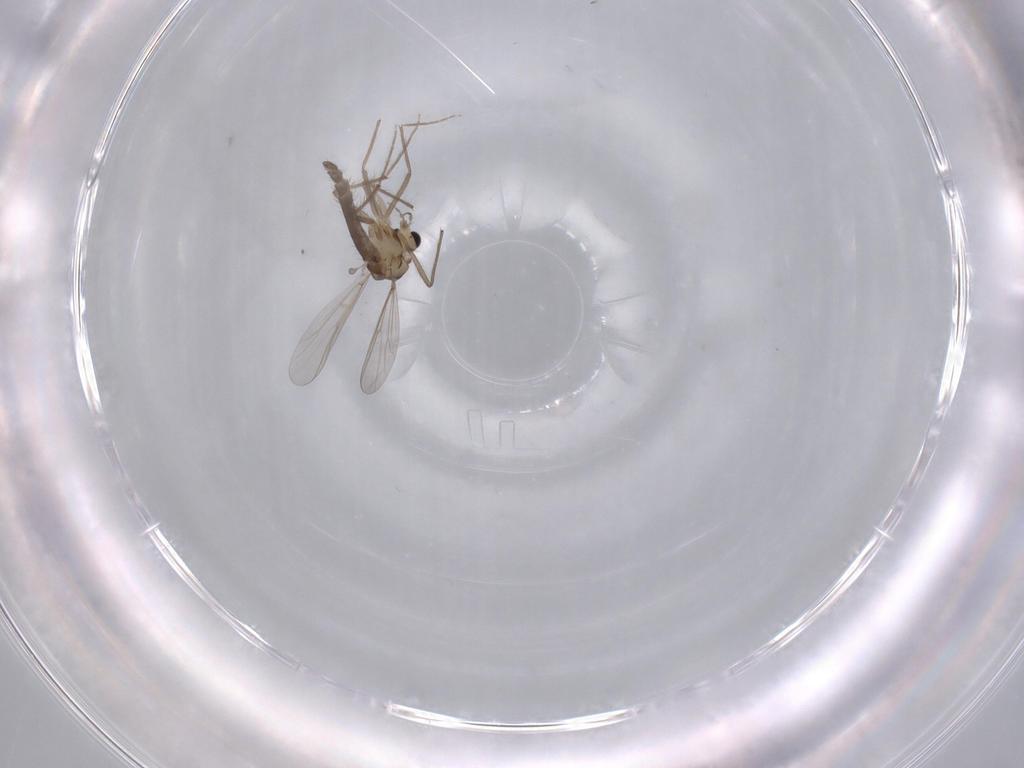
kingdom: Animalia
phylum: Arthropoda
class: Insecta
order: Diptera
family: Chironomidae
